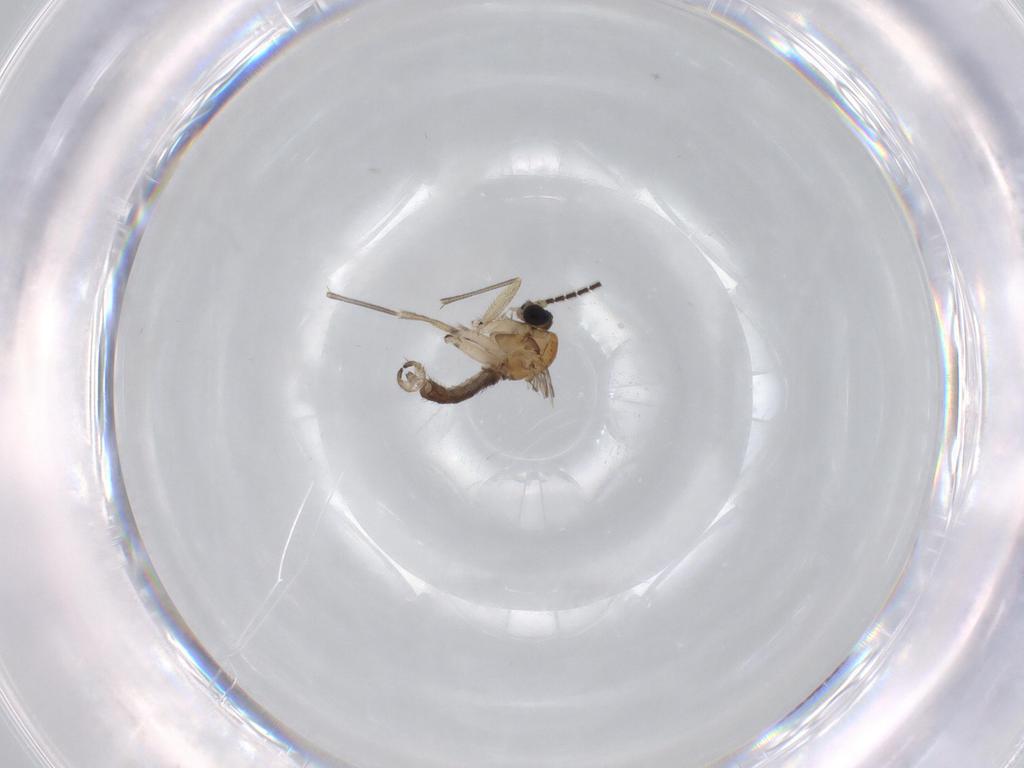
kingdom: Animalia
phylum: Arthropoda
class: Insecta
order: Diptera
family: Sciaridae
